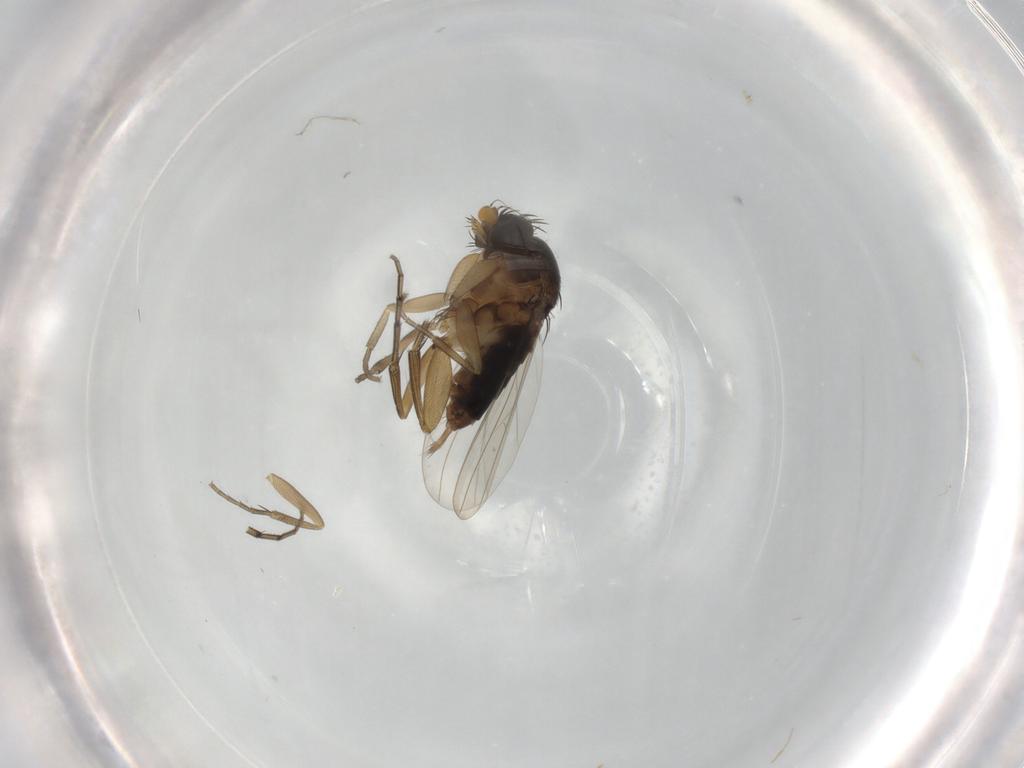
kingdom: Animalia
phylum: Arthropoda
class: Insecta
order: Diptera
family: Phoridae
